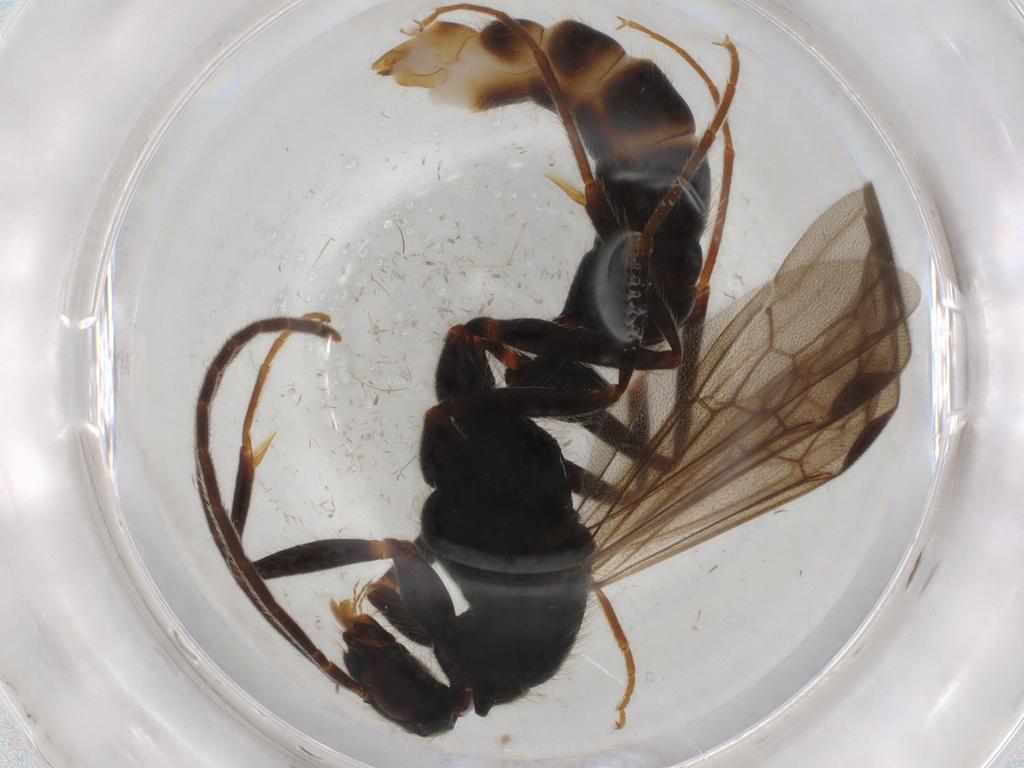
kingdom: Animalia
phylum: Arthropoda
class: Insecta
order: Hymenoptera
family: Formicidae
